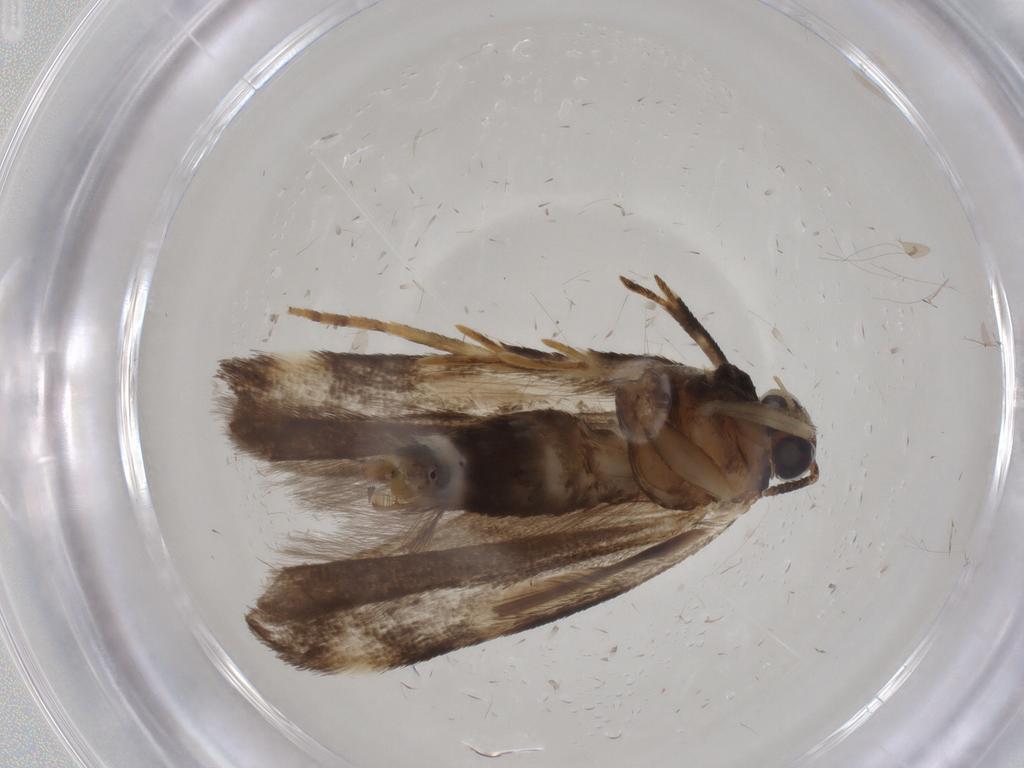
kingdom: Animalia
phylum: Arthropoda
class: Insecta
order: Lepidoptera
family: Gelechiidae
